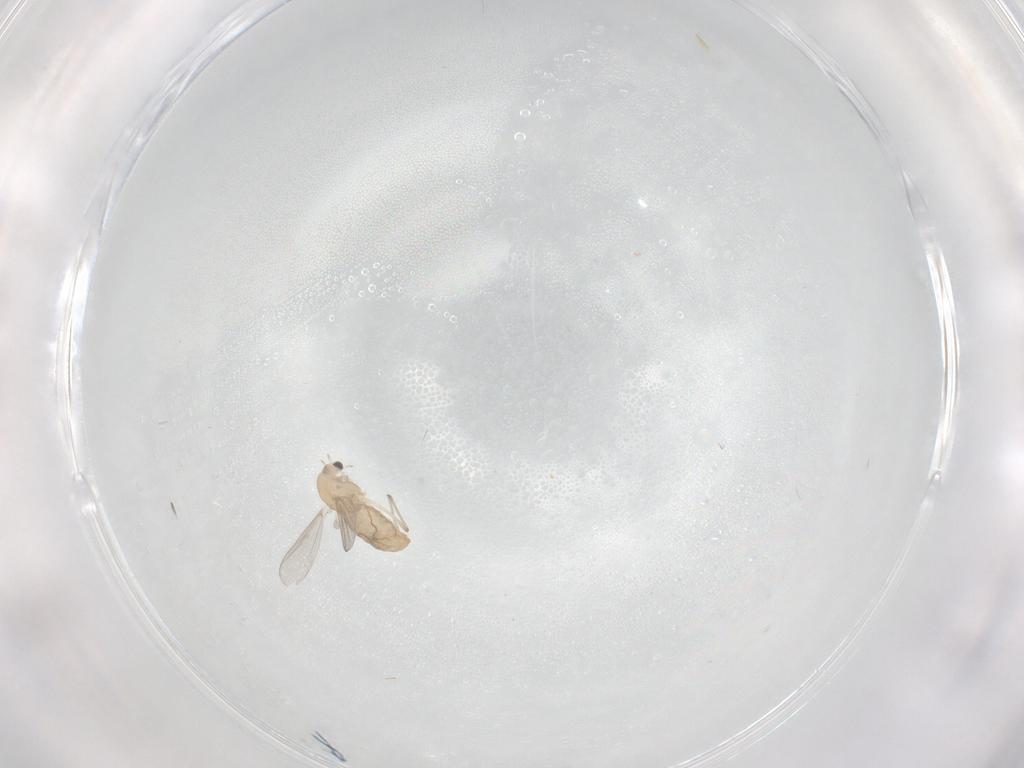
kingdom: Animalia
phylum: Arthropoda
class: Insecta
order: Diptera
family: Chironomidae
